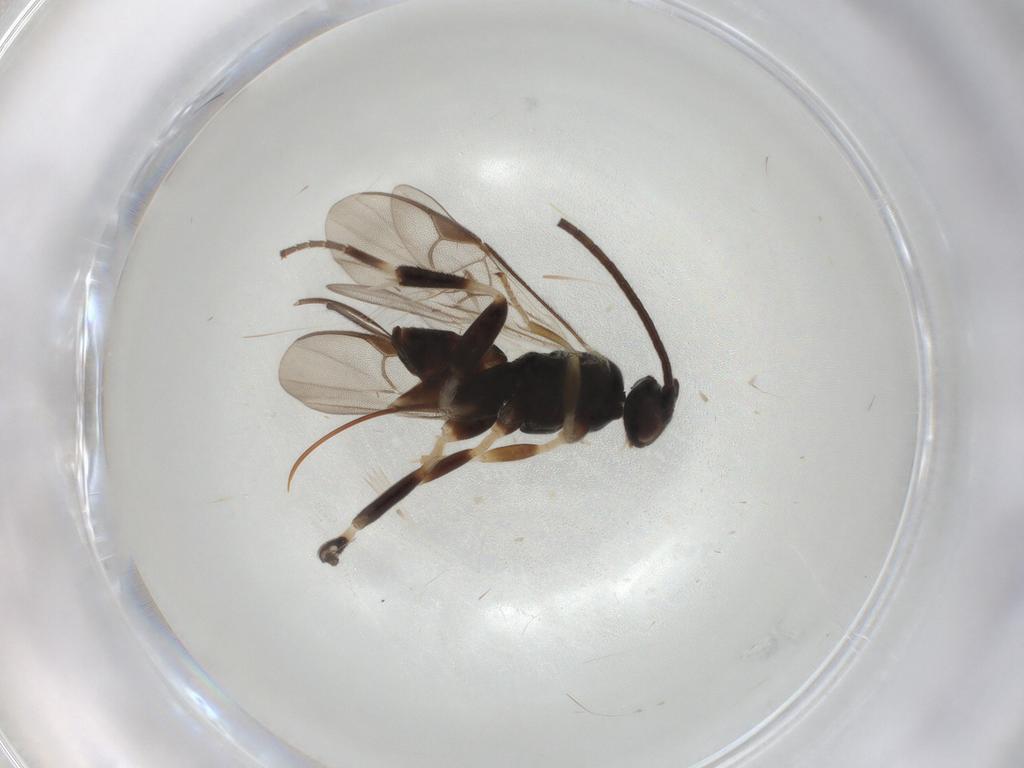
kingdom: Animalia
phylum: Arthropoda
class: Insecta
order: Hymenoptera
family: Braconidae
